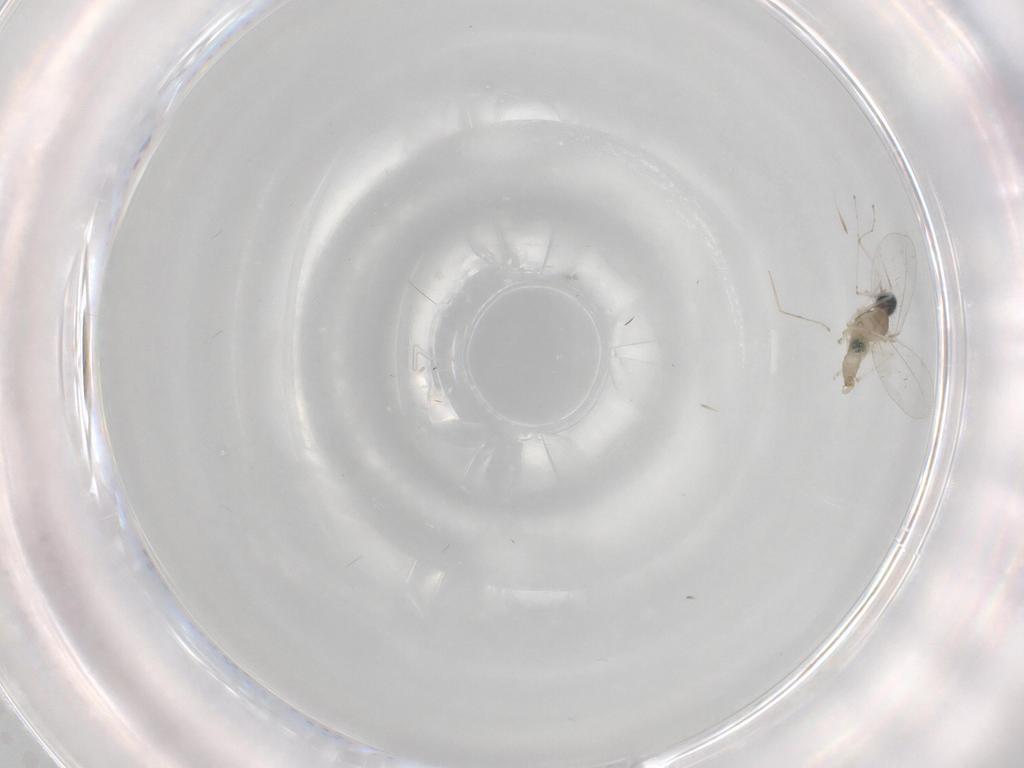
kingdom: Animalia
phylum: Arthropoda
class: Insecta
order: Diptera
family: Cecidomyiidae
